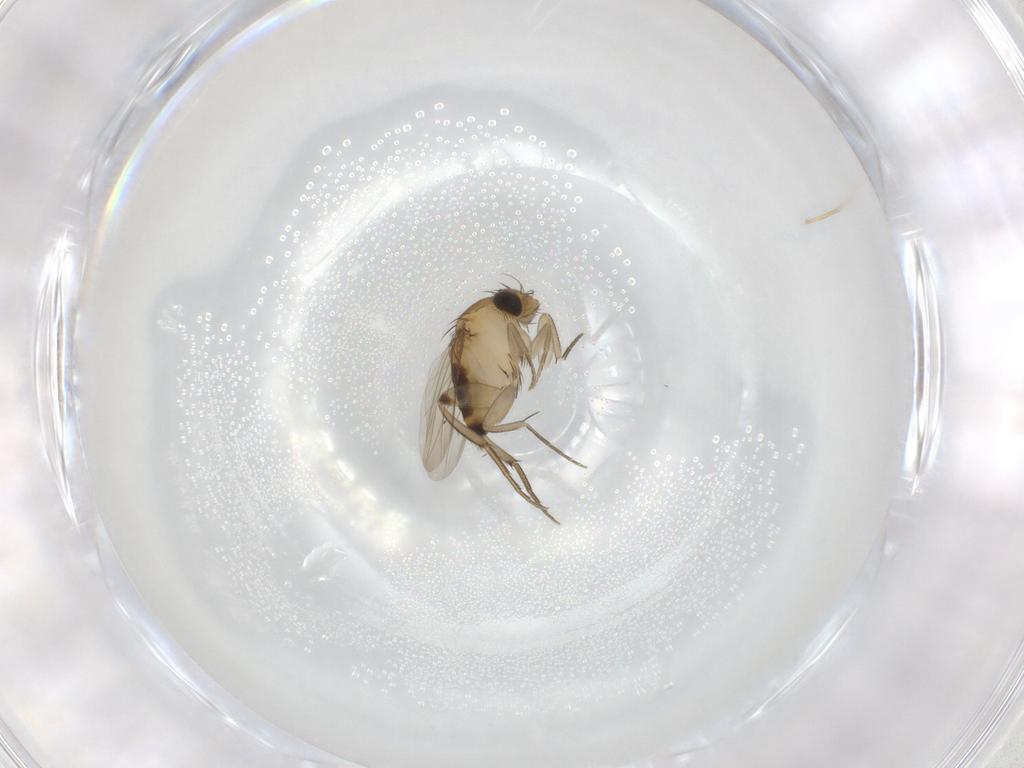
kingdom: Animalia
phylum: Arthropoda
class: Insecta
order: Diptera
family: Phoridae
